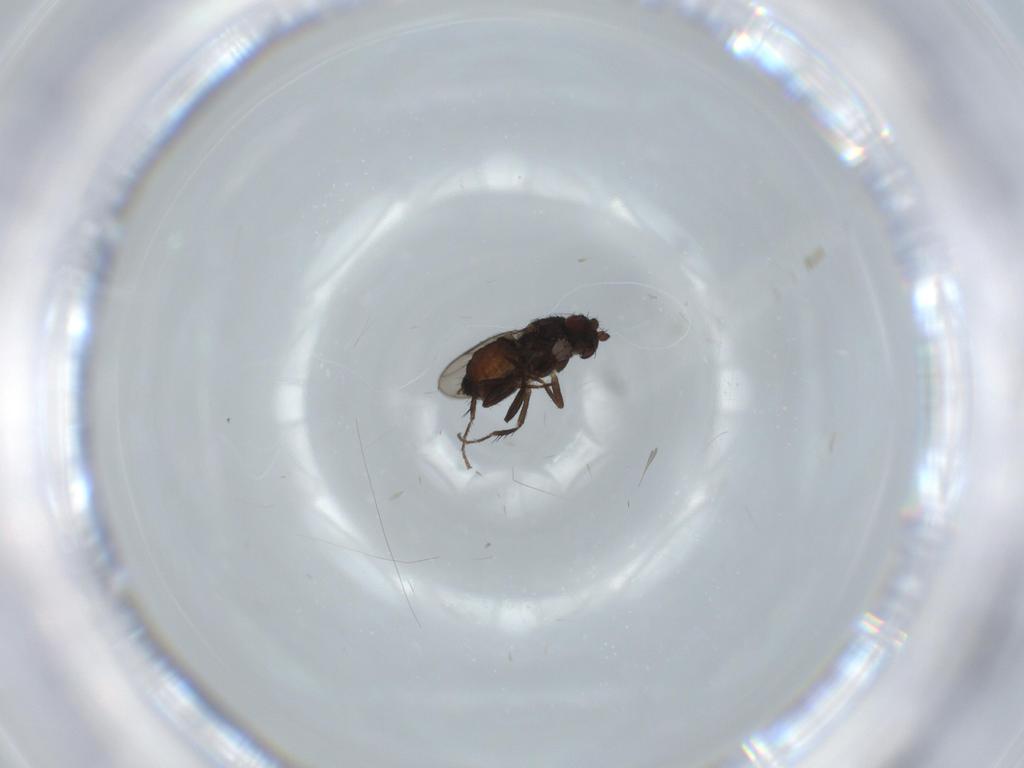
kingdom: Animalia
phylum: Arthropoda
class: Insecta
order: Diptera
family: Sphaeroceridae
